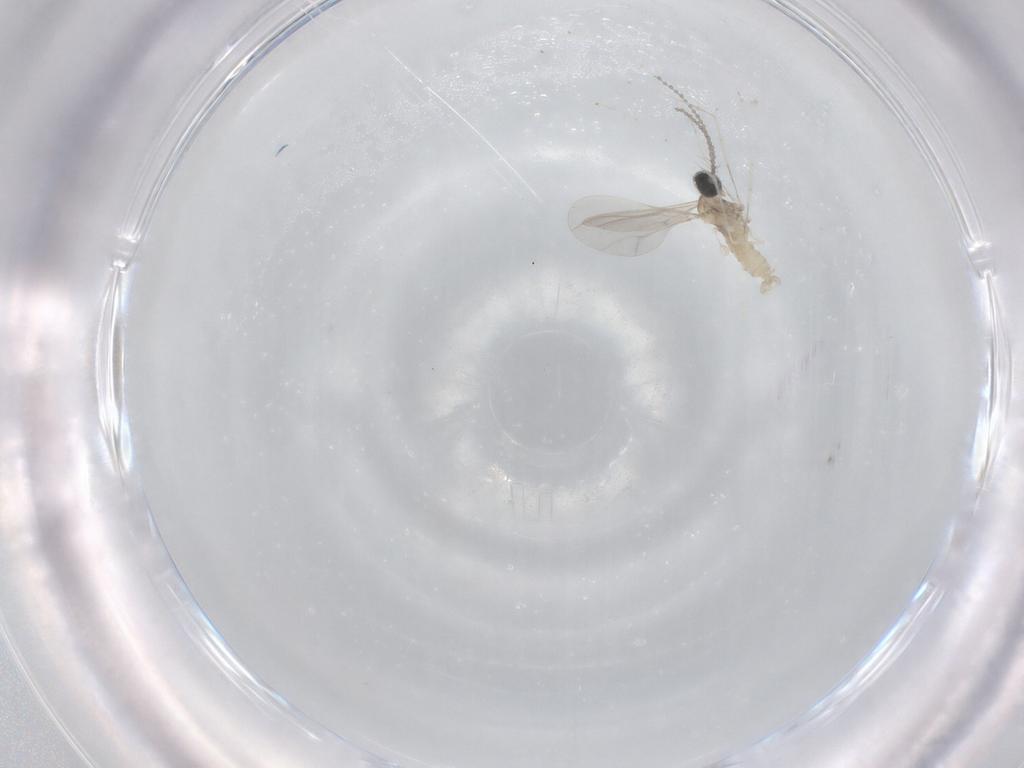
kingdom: Animalia
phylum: Arthropoda
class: Insecta
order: Diptera
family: Cecidomyiidae
